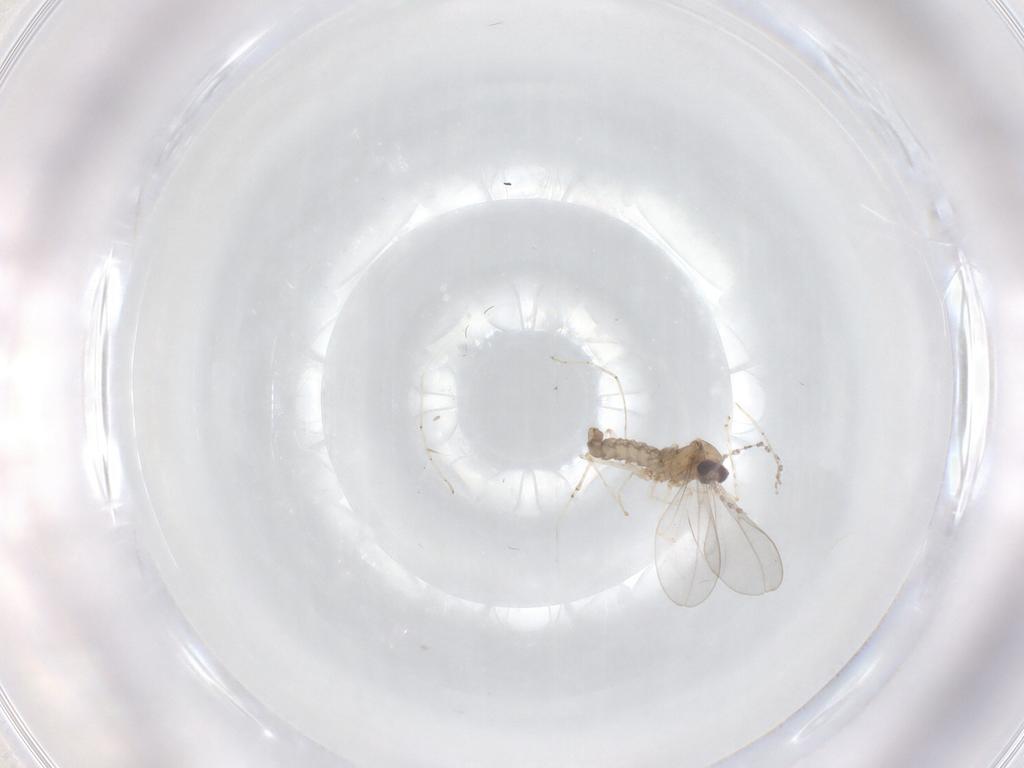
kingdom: Animalia
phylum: Arthropoda
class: Insecta
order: Diptera
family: Cecidomyiidae
